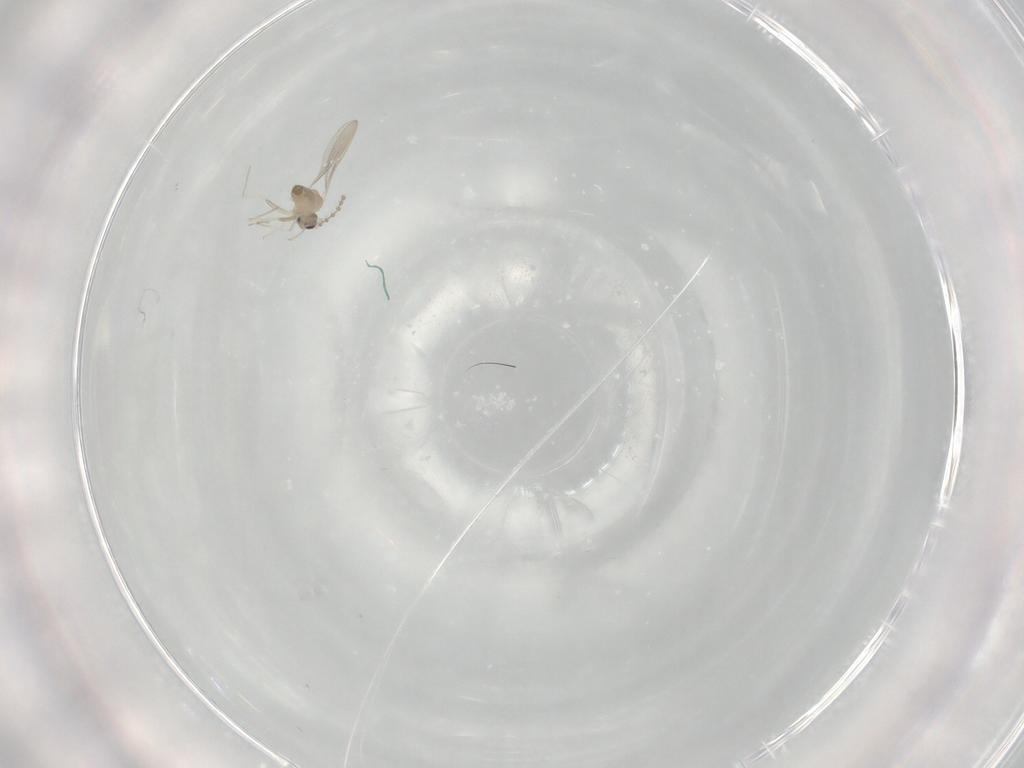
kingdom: Animalia
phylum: Arthropoda
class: Insecta
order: Diptera
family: Cecidomyiidae
